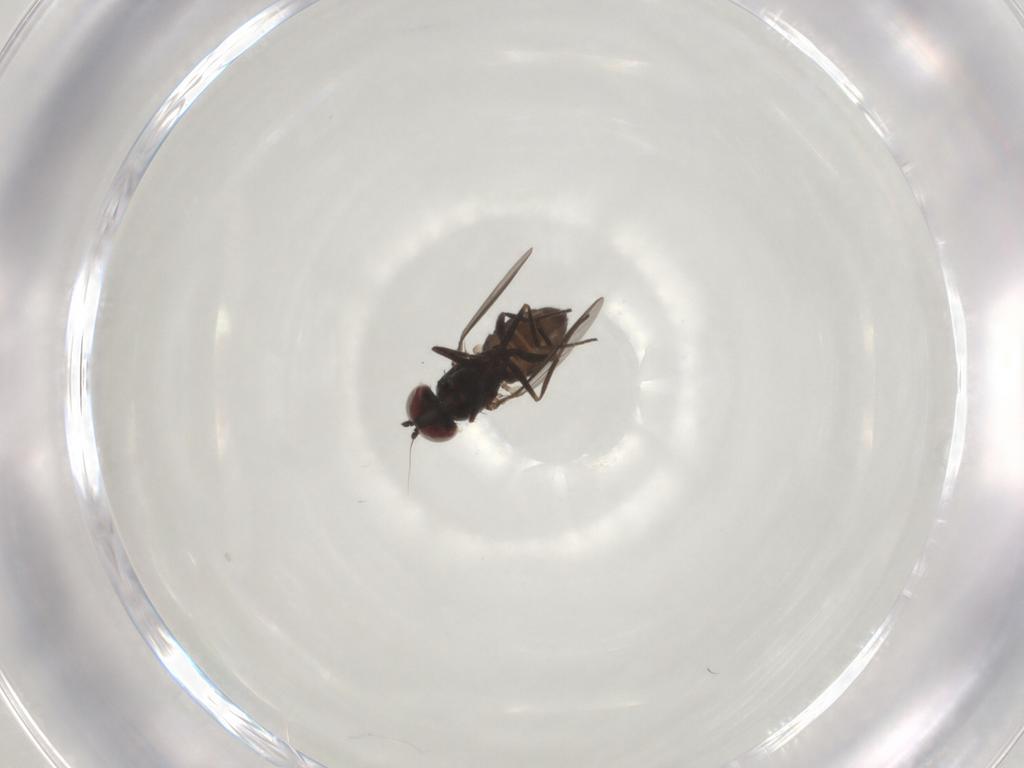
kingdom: Animalia
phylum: Arthropoda
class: Insecta
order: Diptera
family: Dolichopodidae
